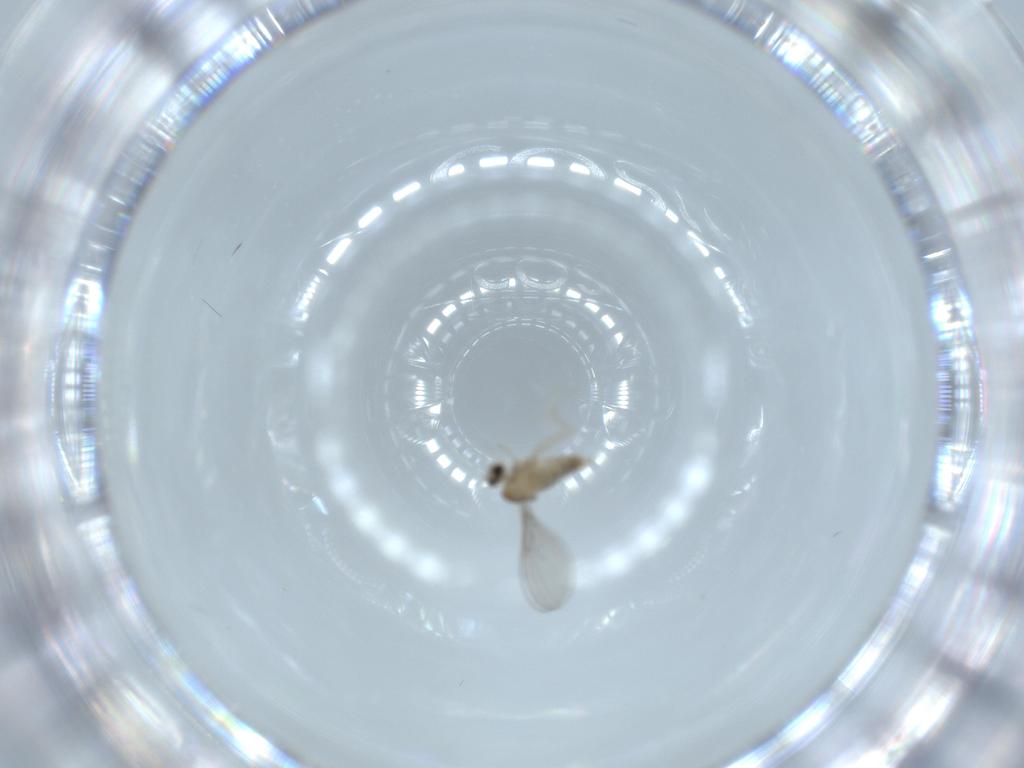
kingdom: Animalia
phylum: Arthropoda
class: Insecta
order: Diptera
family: Cecidomyiidae
